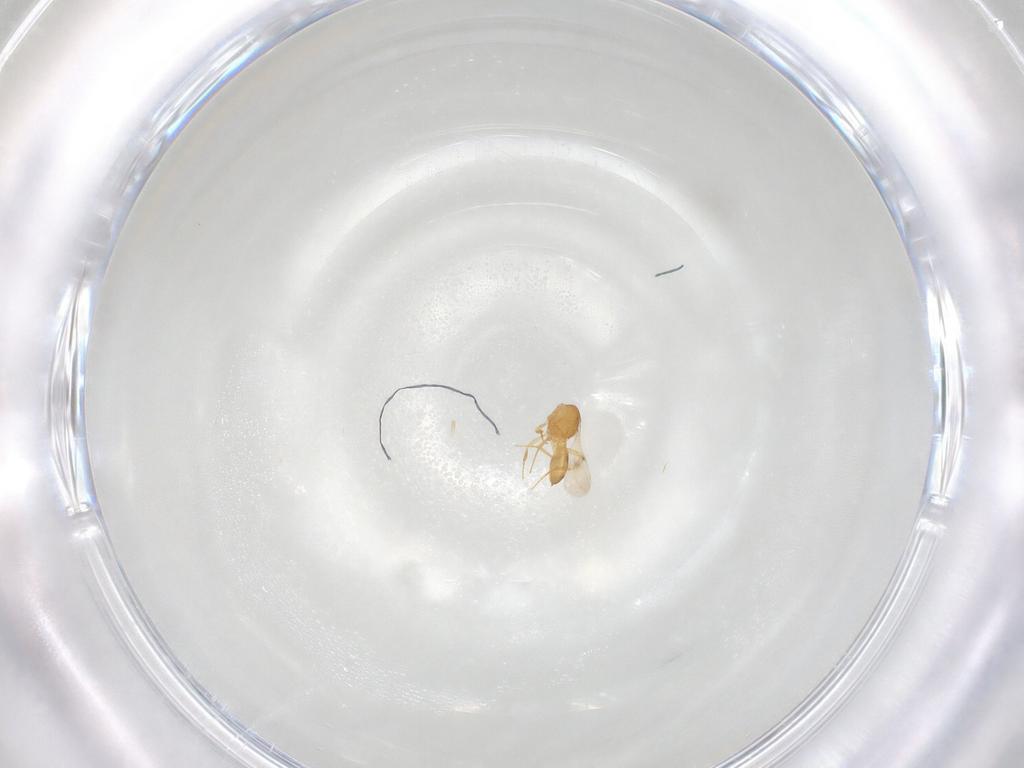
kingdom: Animalia
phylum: Arthropoda
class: Insecta
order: Hymenoptera
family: Scelionidae
